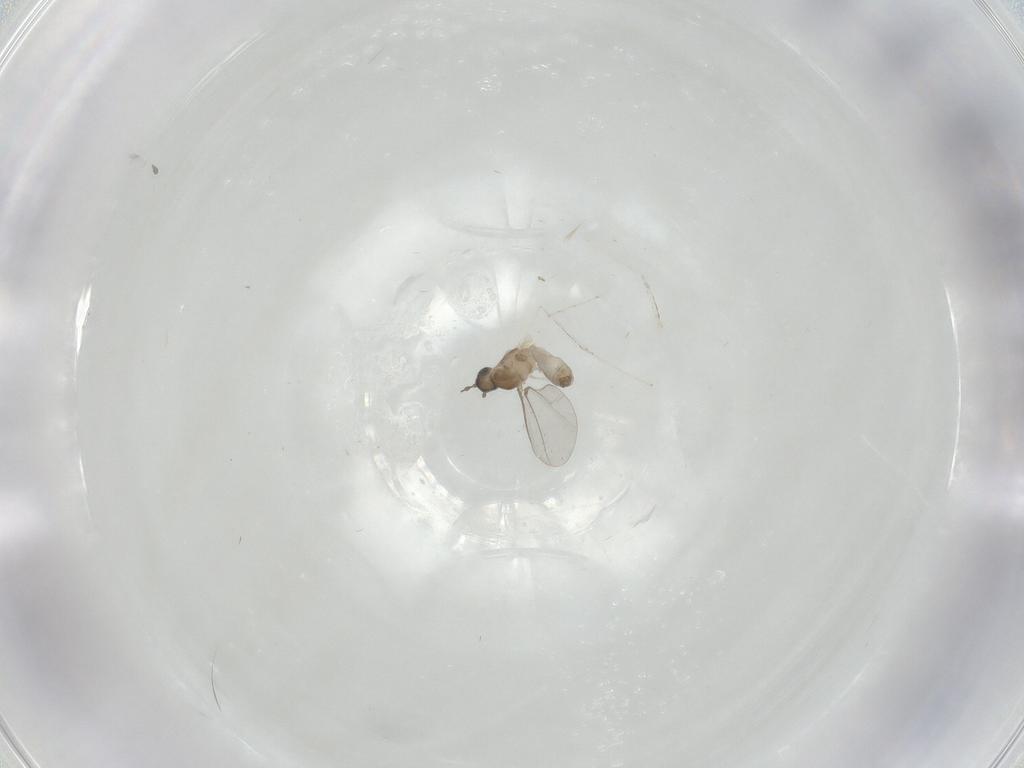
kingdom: Animalia
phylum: Arthropoda
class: Insecta
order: Diptera
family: Cecidomyiidae
